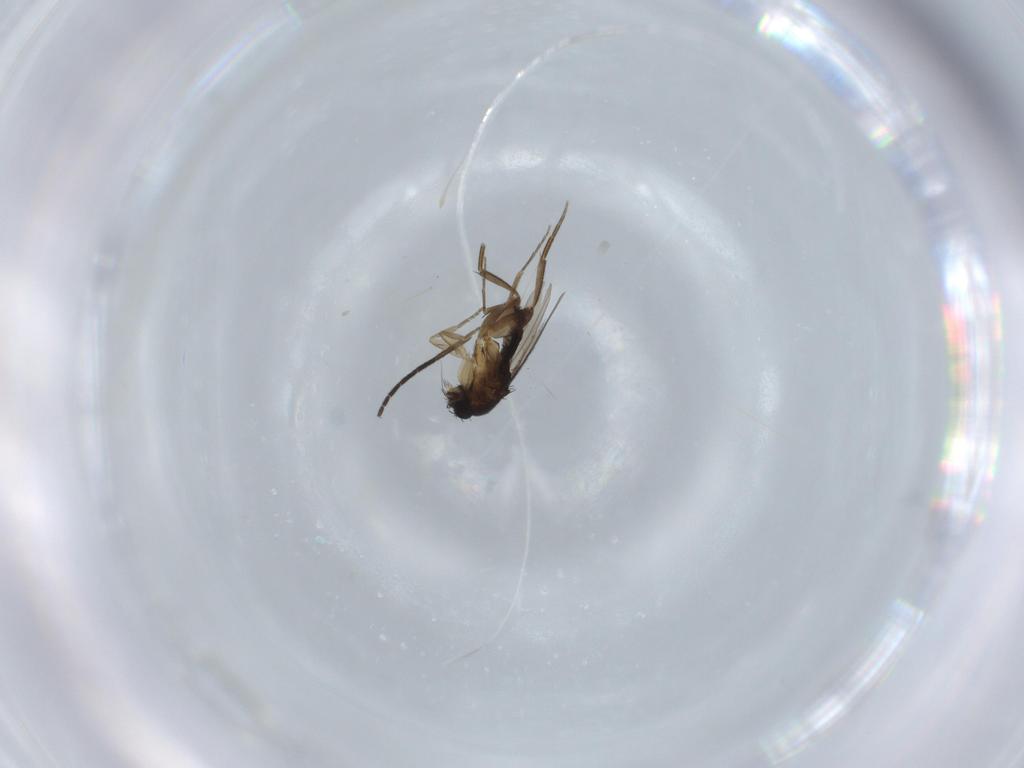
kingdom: Animalia
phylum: Arthropoda
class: Insecta
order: Diptera
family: Phoridae
